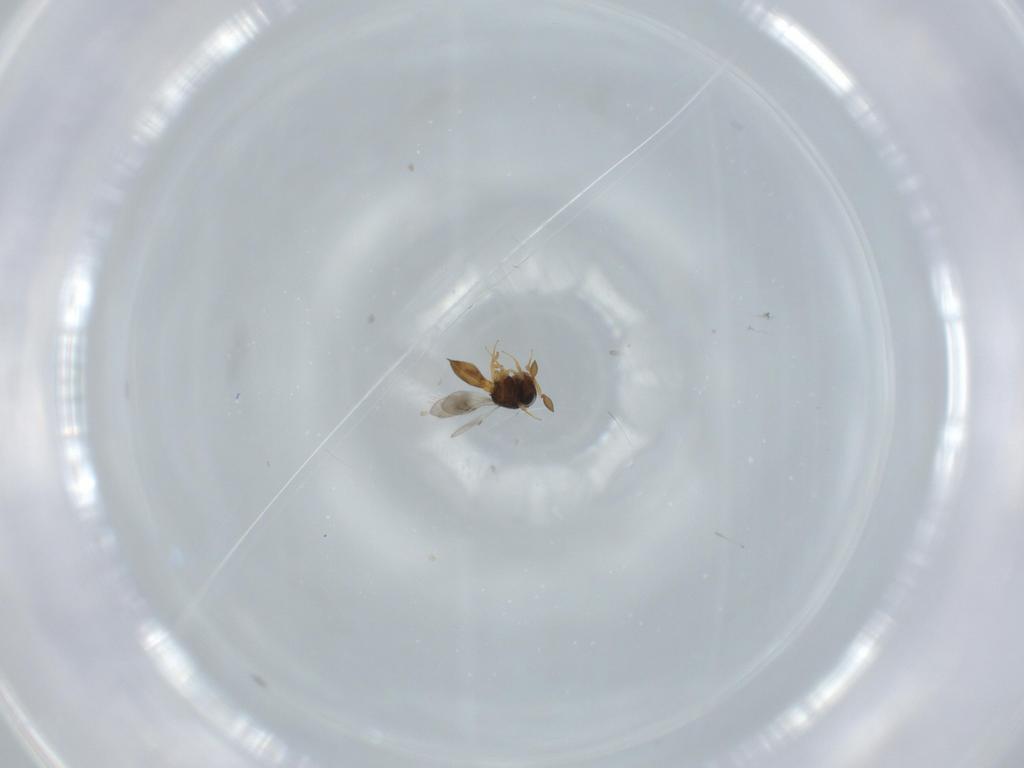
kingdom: Animalia
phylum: Arthropoda
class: Insecta
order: Hymenoptera
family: Scelionidae
